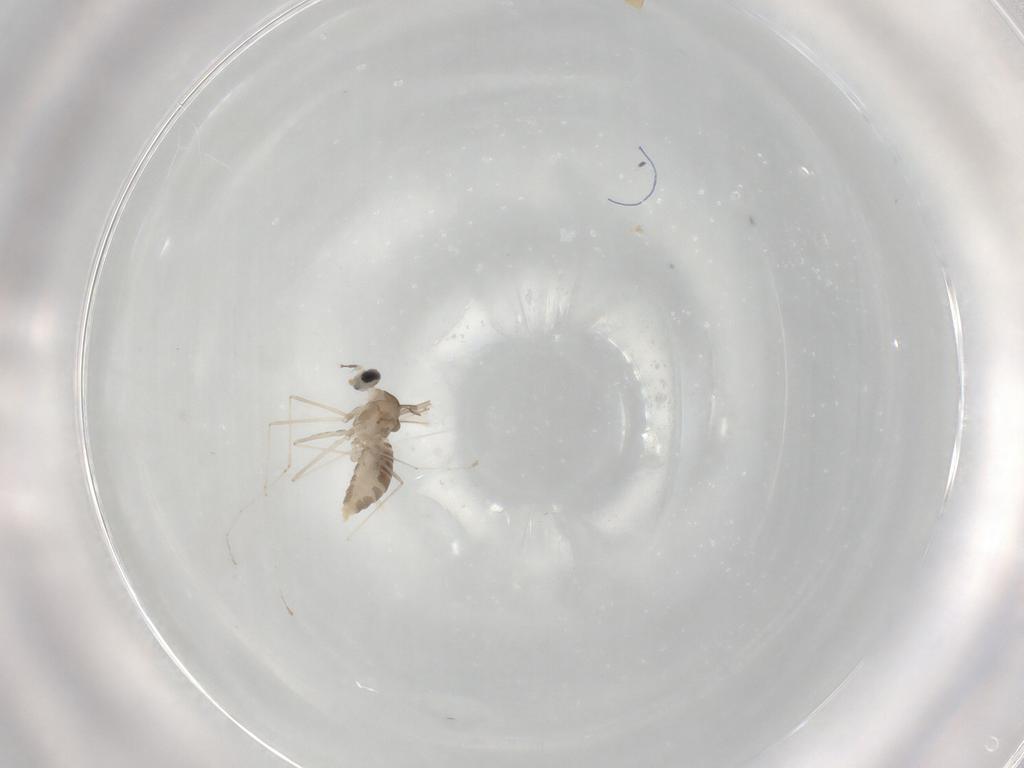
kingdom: Animalia
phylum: Arthropoda
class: Insecta
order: Diptera
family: Cecidomyiidae
